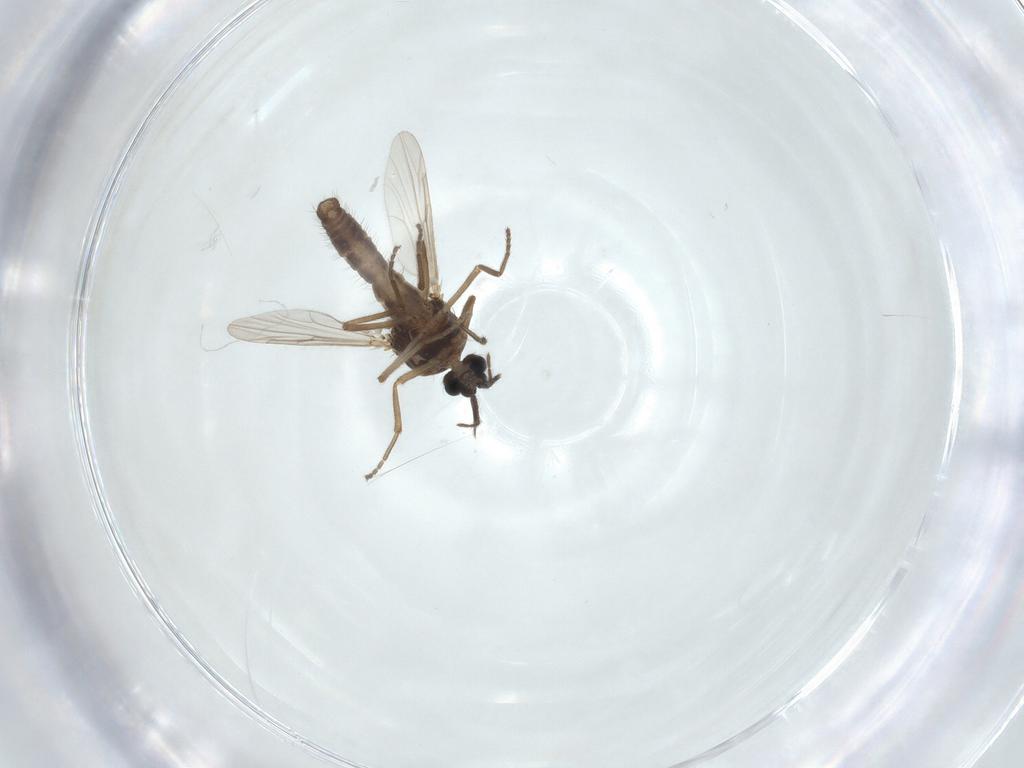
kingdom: Animalia
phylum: Arthropoda
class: Insecta
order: Diptera
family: Ceratopogonidae
